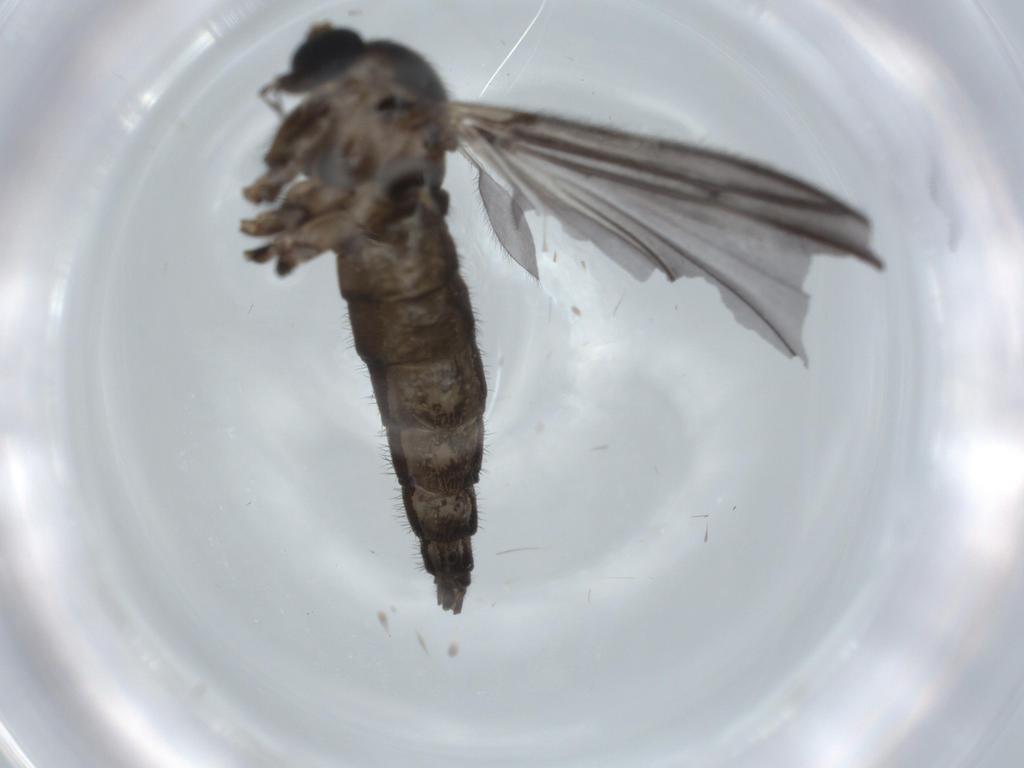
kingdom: Animalia
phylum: Arthropoda
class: Insecta
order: Diptera
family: Sciaridae
